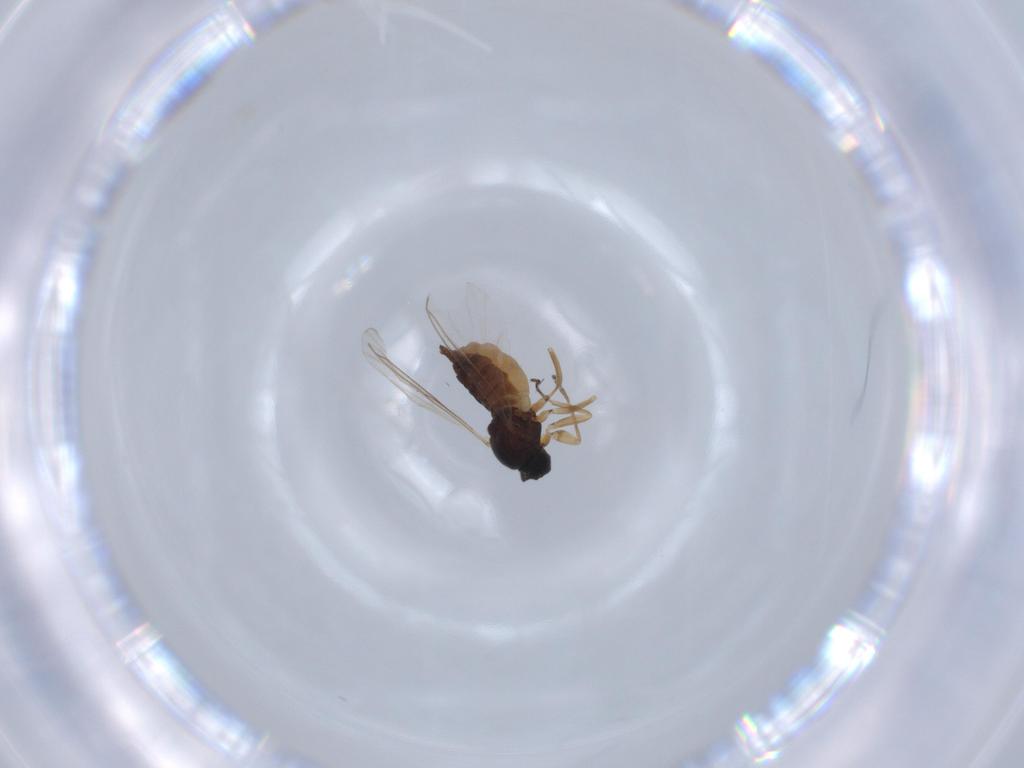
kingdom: Animalia
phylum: Arthropoda
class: Insecta
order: Diptera
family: Sciaridae
